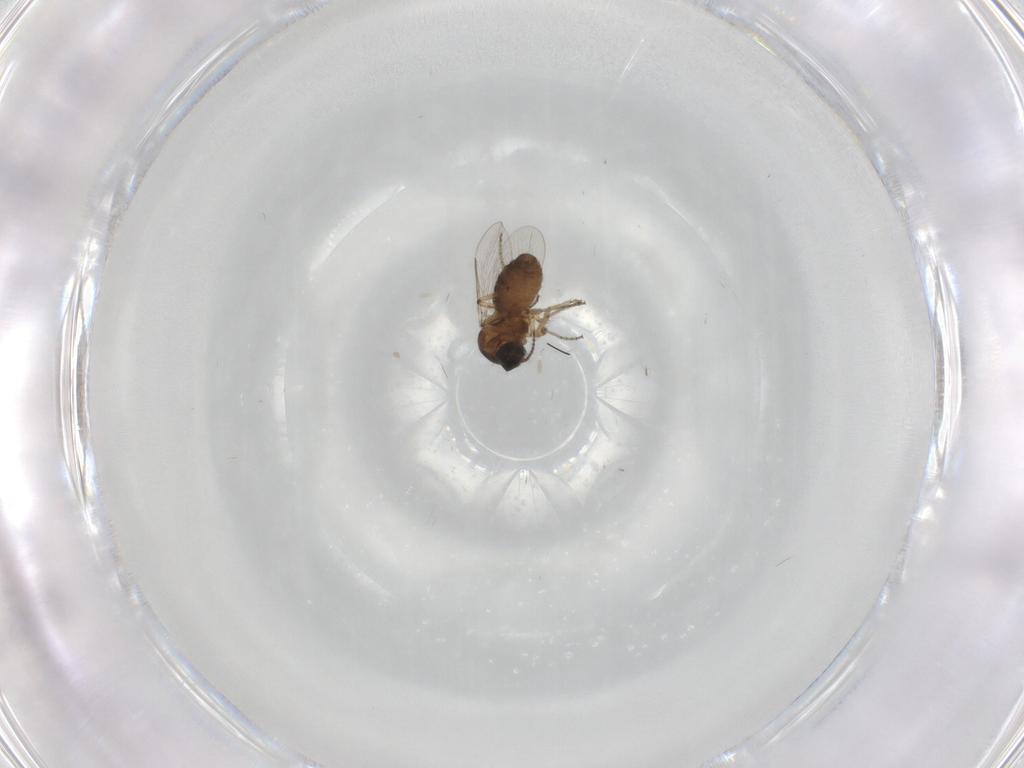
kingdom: Animalia
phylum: Arthropoda
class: Insecta
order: Diptera
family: Ceratopogonidae
